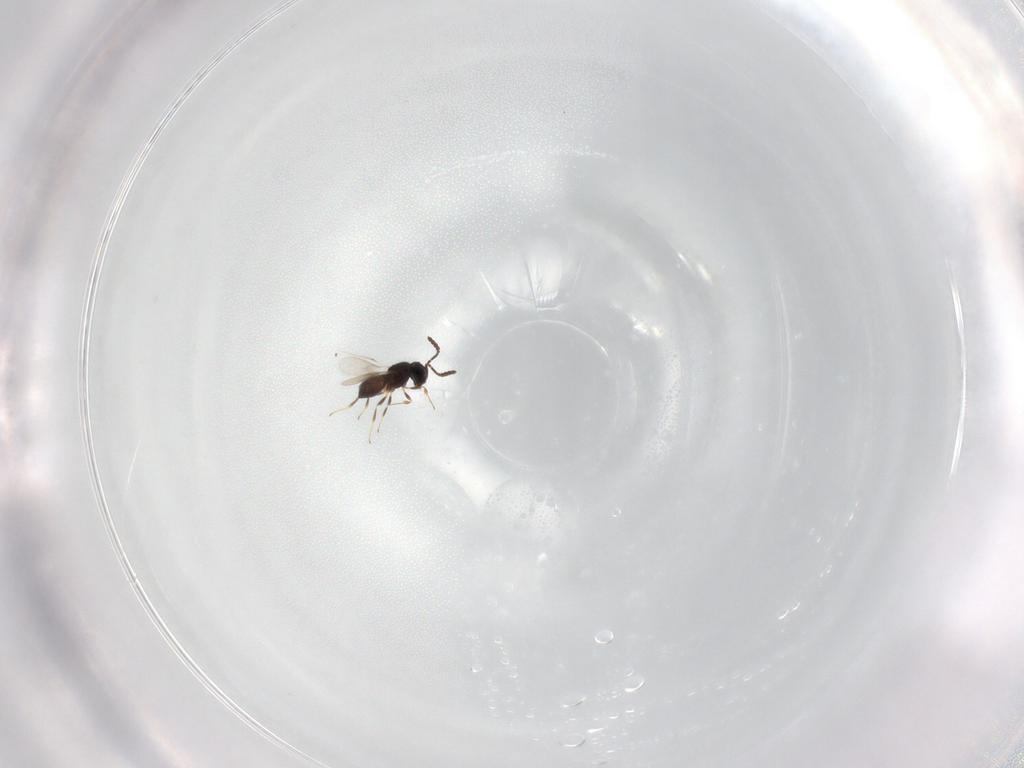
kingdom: Animalia
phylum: Arthropoda
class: Insecta
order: Hymenoptera
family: Scelionidae
